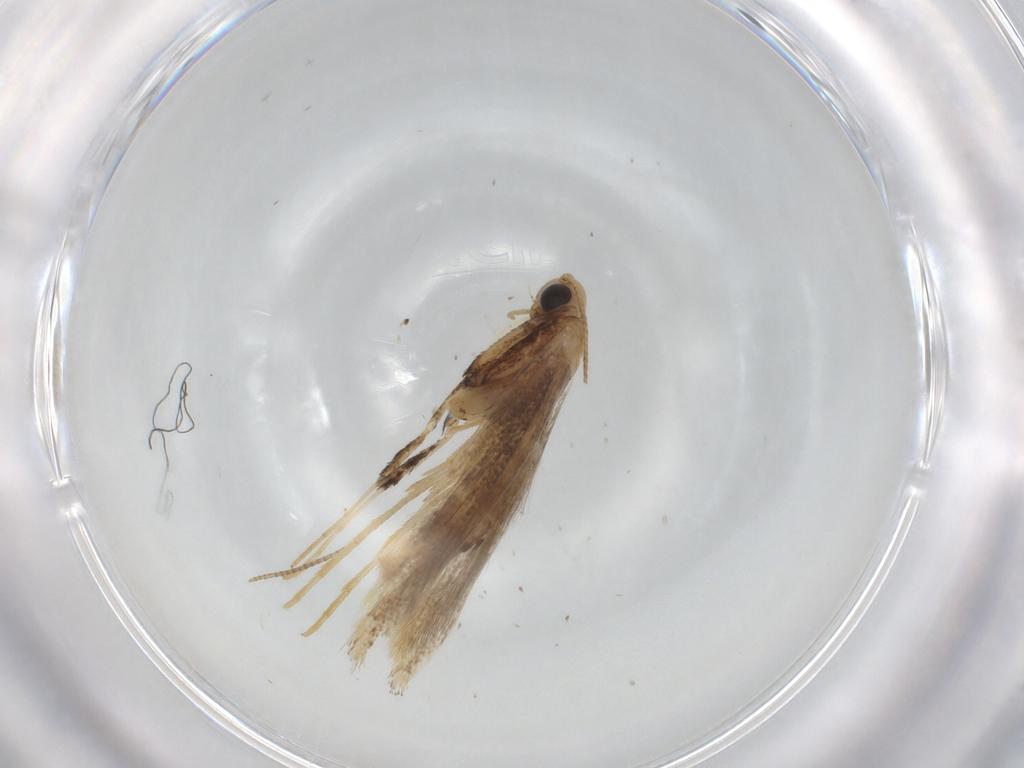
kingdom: Animalia
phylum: Arthropoda
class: Insecta
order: Lepidoptera
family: Gracillariidae
